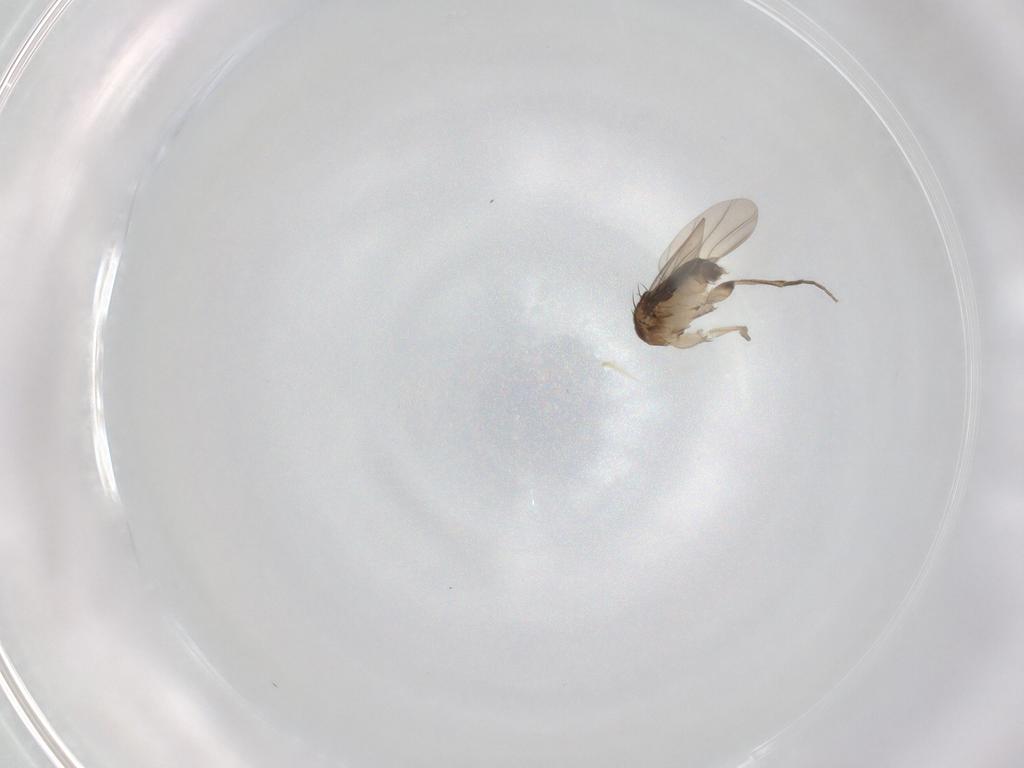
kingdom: Animalia
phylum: Arthropoda
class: Insecta
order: Diptera
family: Phoridae
